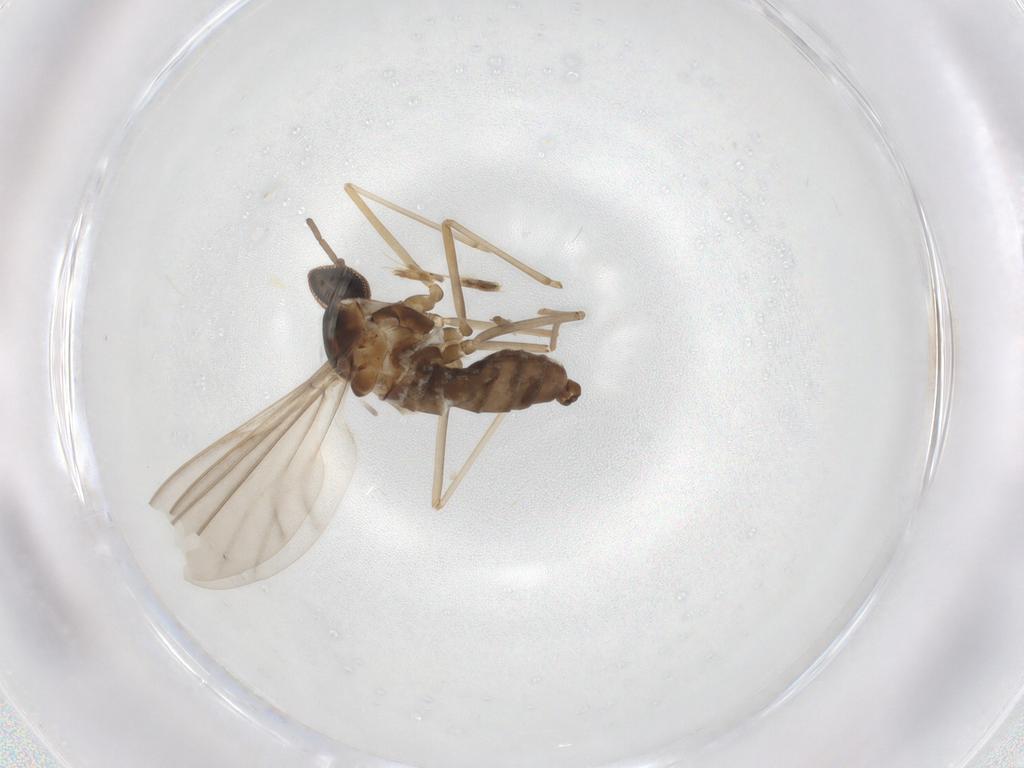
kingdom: Animalia
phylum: Arthropoda
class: Insecta
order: Diptera
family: Cecidomyiidae
